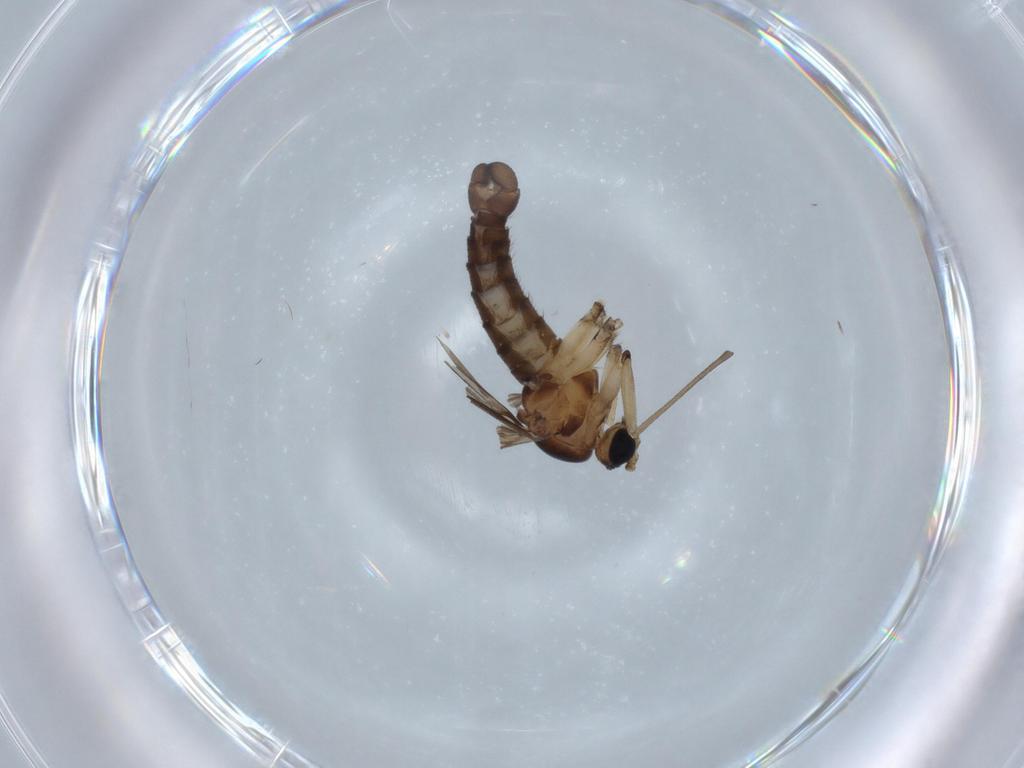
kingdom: Animalia
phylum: Arthropoda
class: Insecta
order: Diptera
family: Sciaridae
